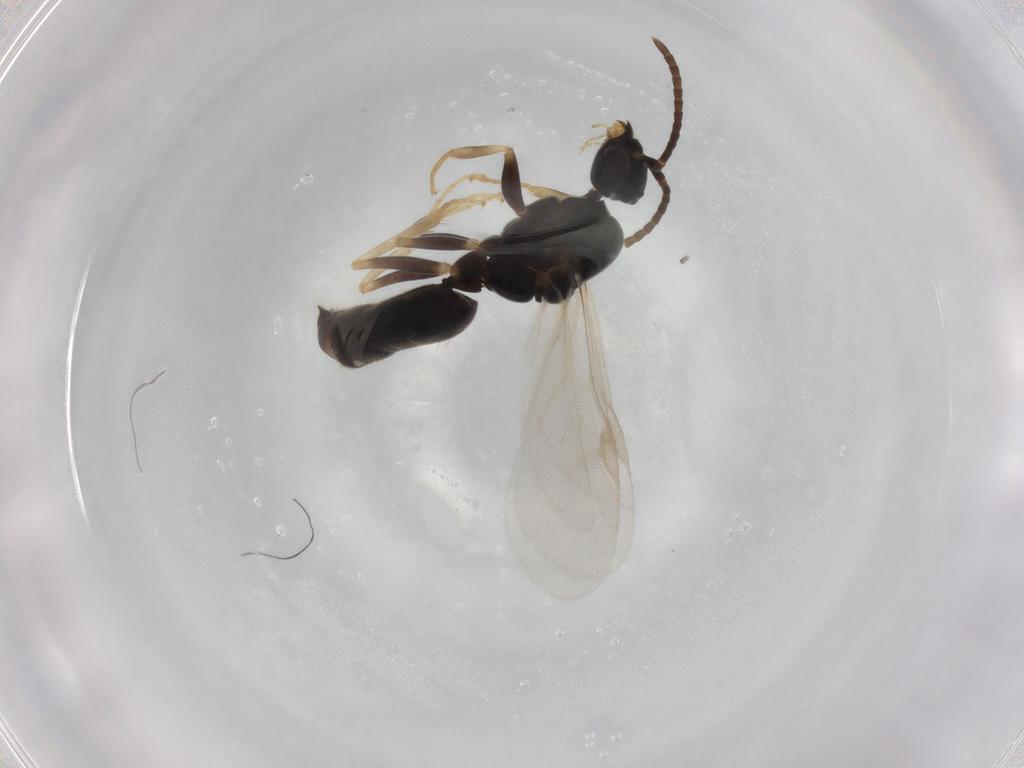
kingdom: Animalia
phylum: Arthropoda
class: Insecta
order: Hymenoptera
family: Formicidae
